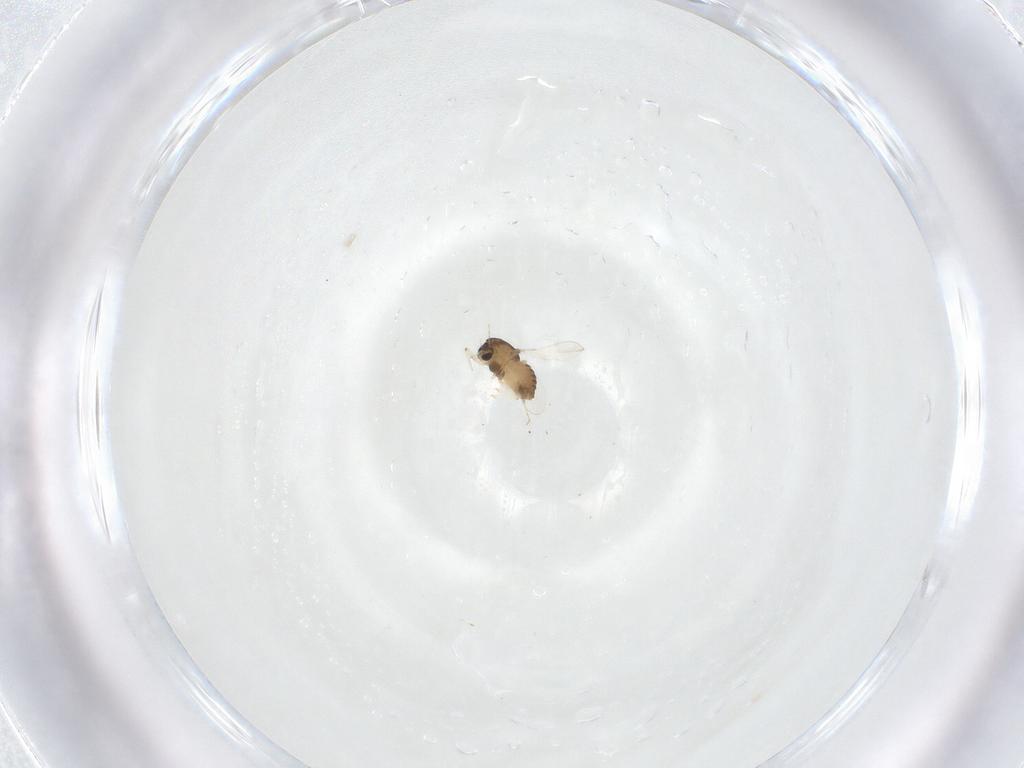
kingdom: Animalia
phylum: Arthropoda
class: Insecta
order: Diptera
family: Chironomidae
